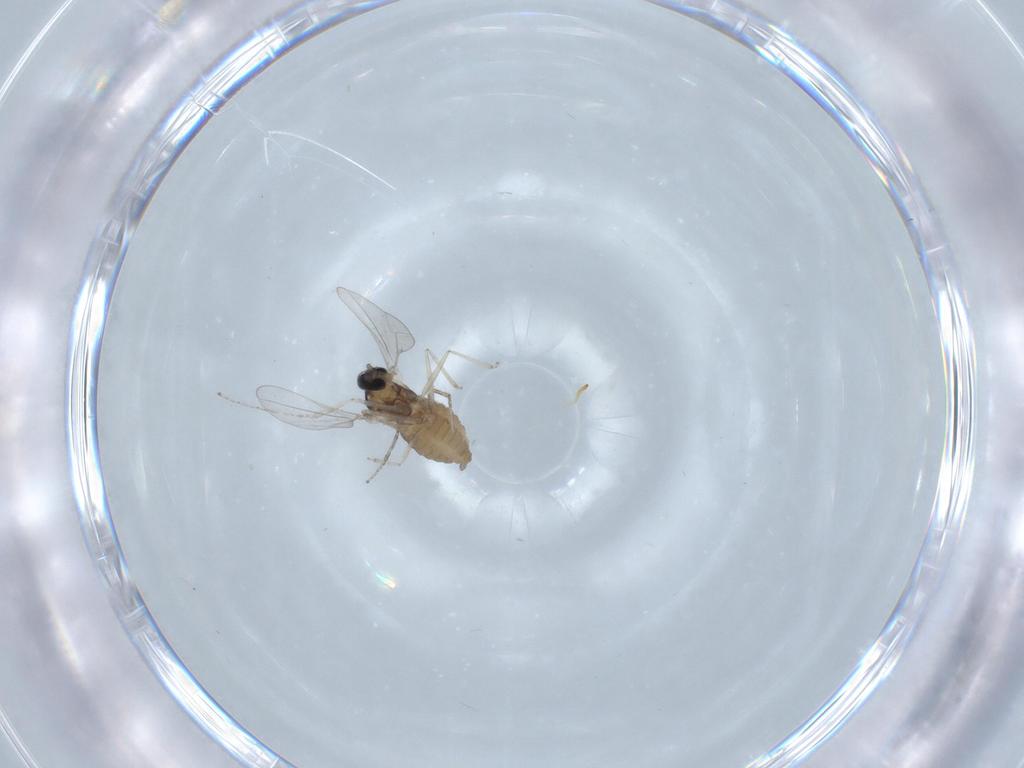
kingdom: Animalia
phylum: Arthropoda
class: Insecta
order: Diptera
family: Cecidomyiidae
